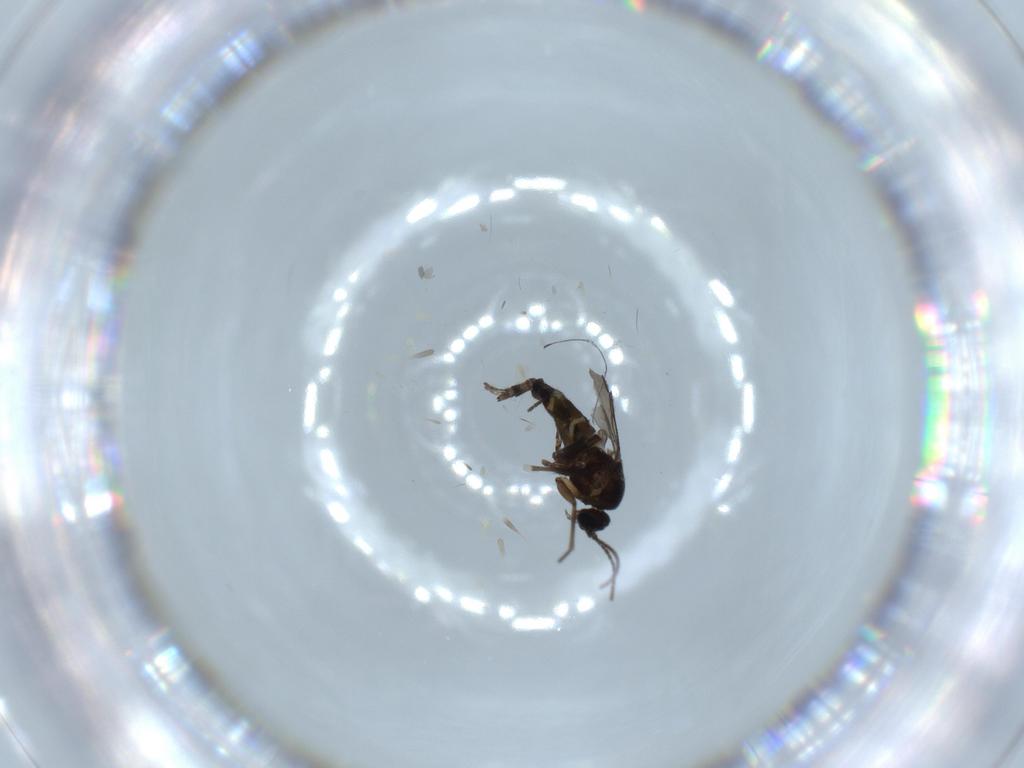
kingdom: Animalia
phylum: Arthropoda
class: Insecta
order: Diptera
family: Sciaridae
